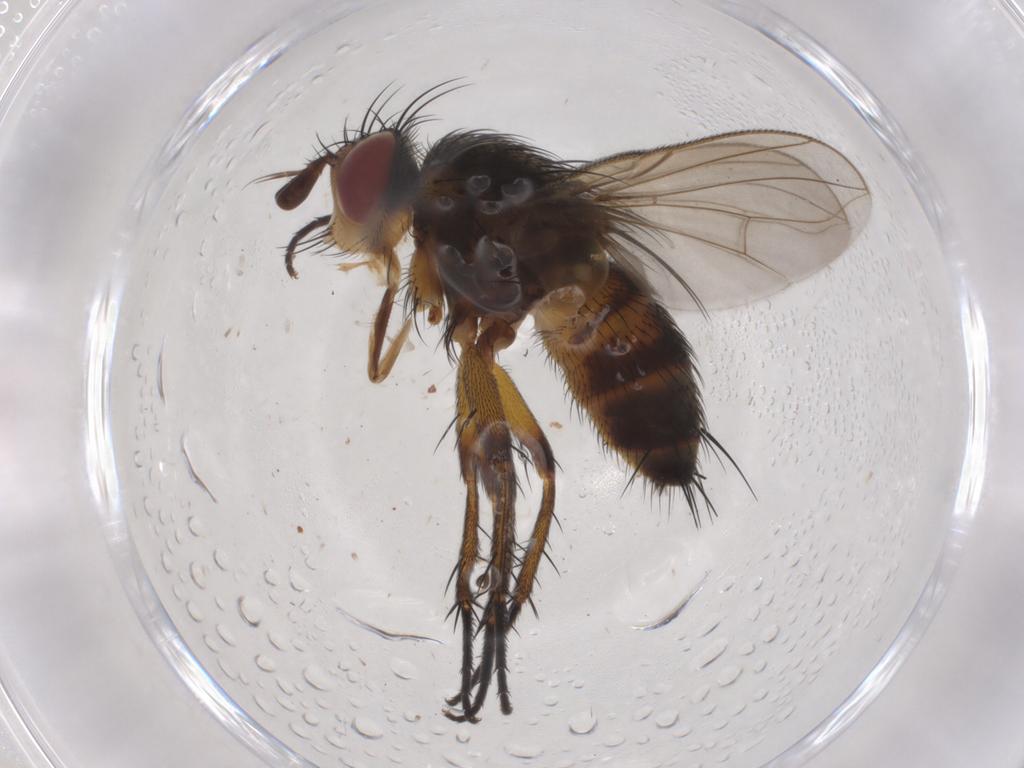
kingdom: Animalia
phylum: Arthropoda
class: Insecta
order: Diptera
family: Tachinidae
